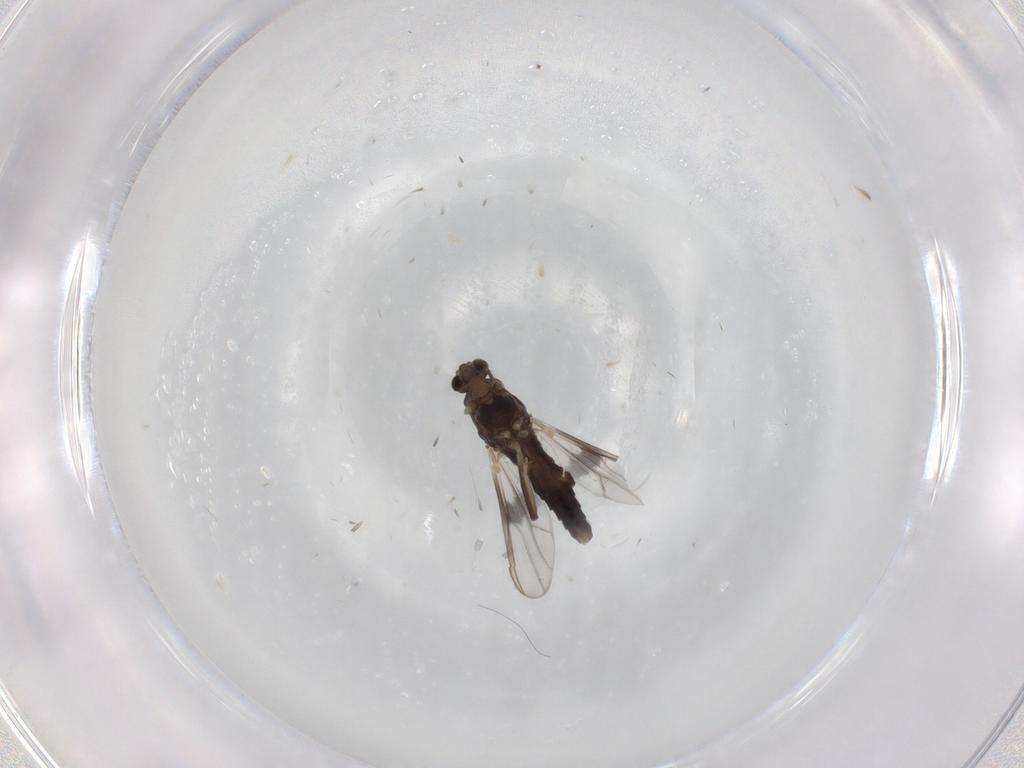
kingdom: Animalia
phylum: Arthropoda
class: Insecta
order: Diptera
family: Chironomidae
